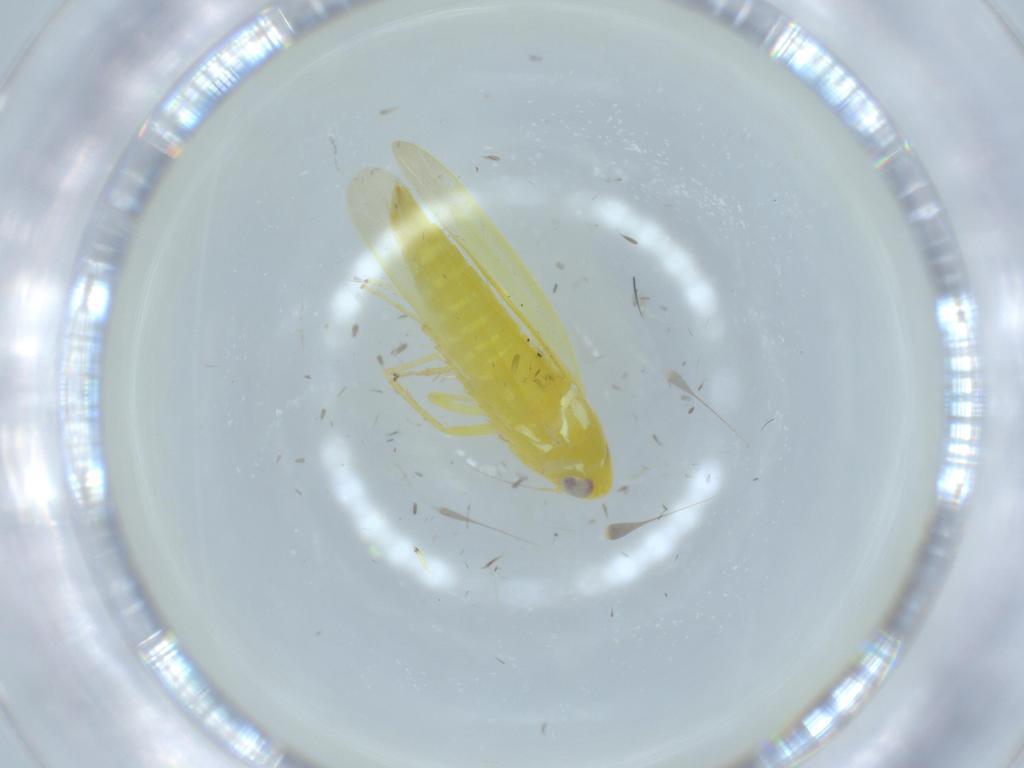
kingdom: Animalia
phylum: Arthropoda
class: Insecta
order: Hemiptera
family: Cicadellidae
